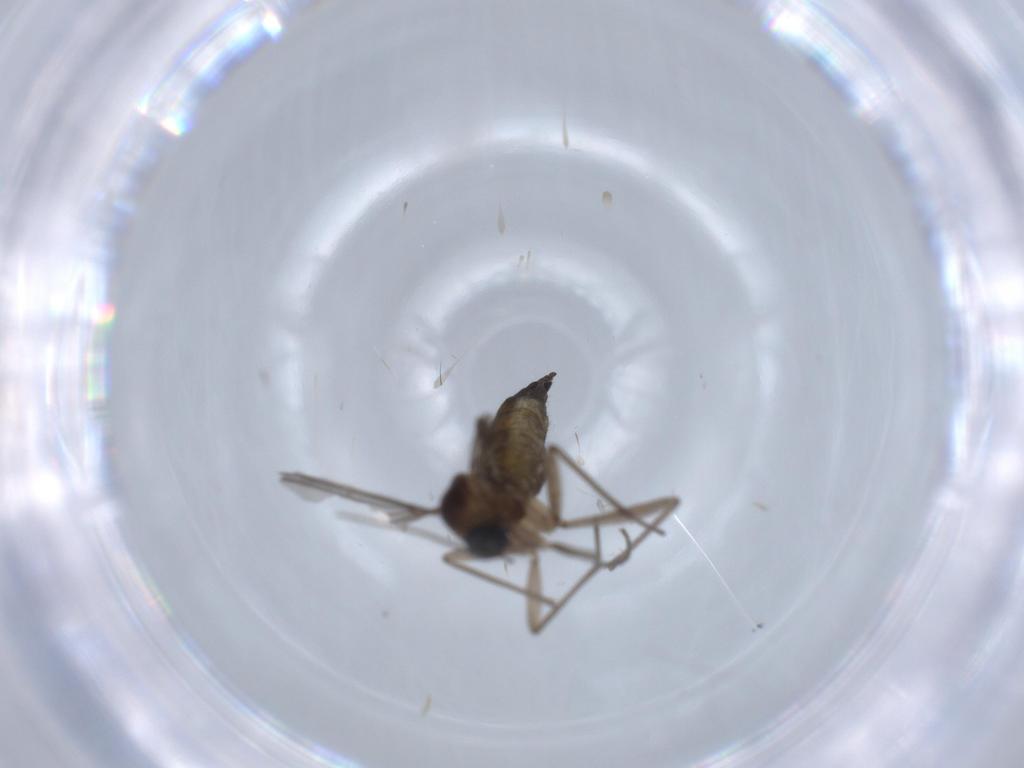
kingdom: Animalia
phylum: Arthropoda
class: Insecta
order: Diptera
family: Sciaridae
